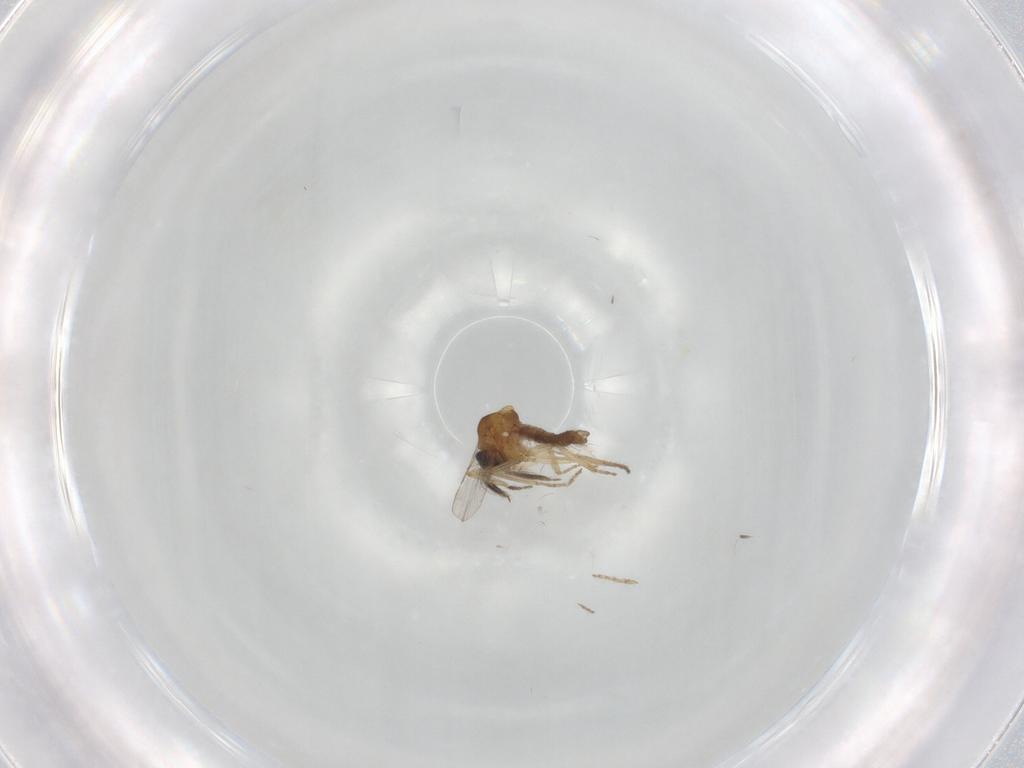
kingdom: Animalia
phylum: Arthropoda
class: Insecta
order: Diptera
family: Ceratopogonidae
